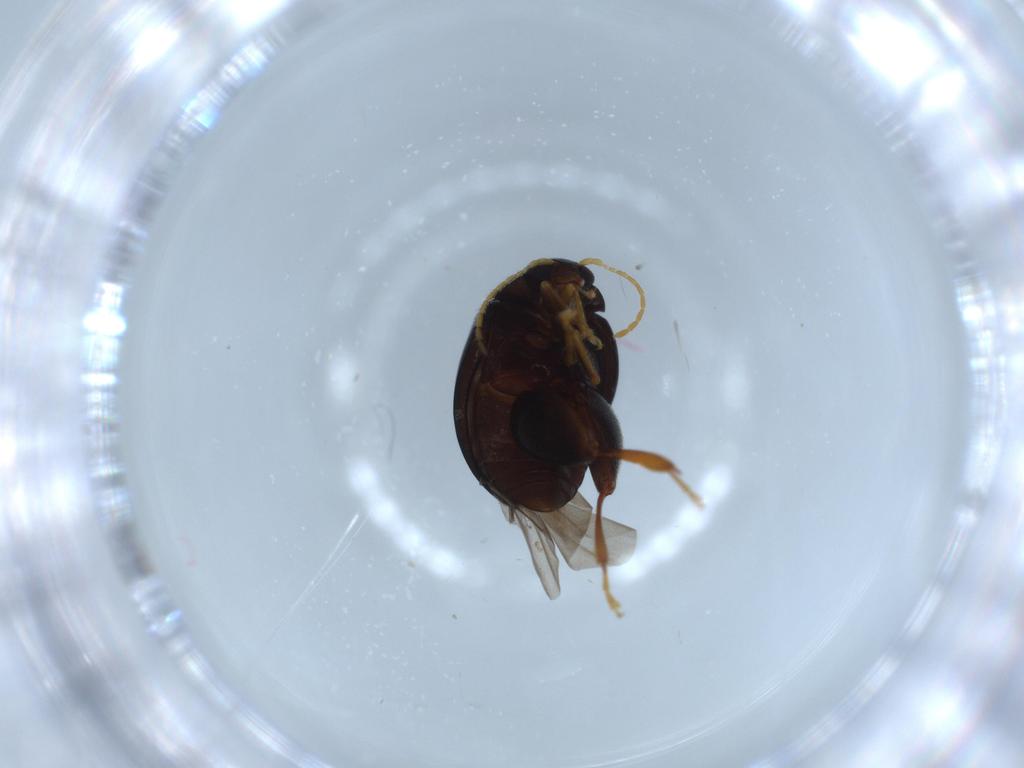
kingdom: Animalia
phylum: Arthropoda
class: Insecta
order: Coleoptera
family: Chrysomelidae
